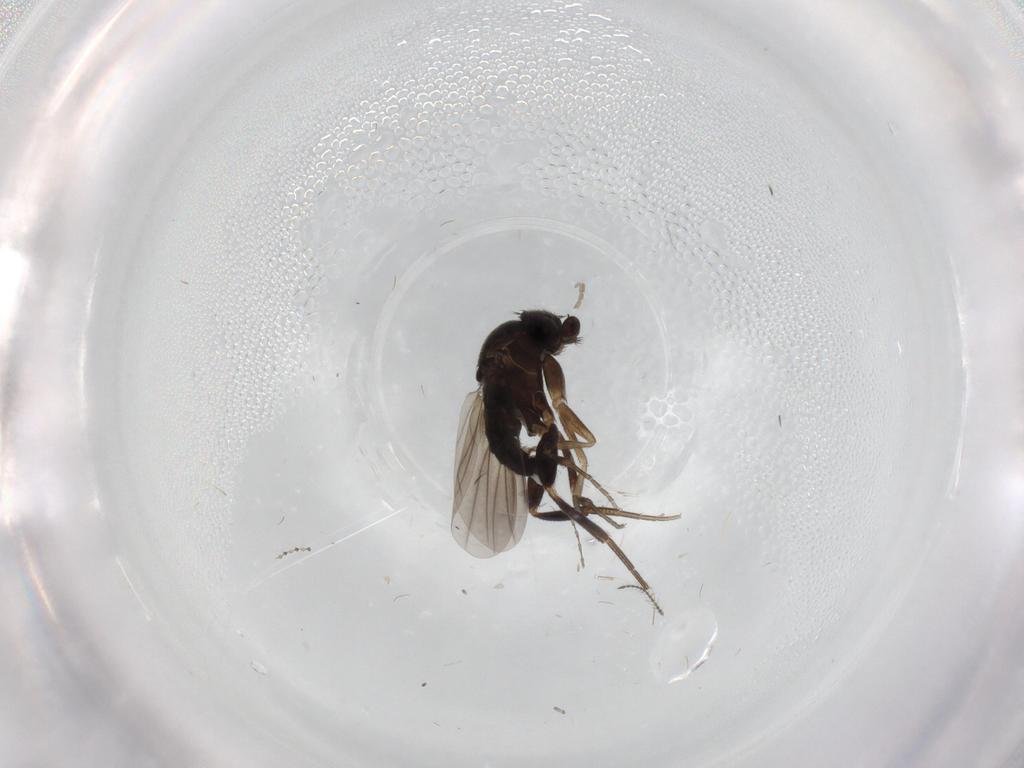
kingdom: Animalia
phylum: Arthropoda
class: Insecta
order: Diptera
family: Cecidomyiidae
